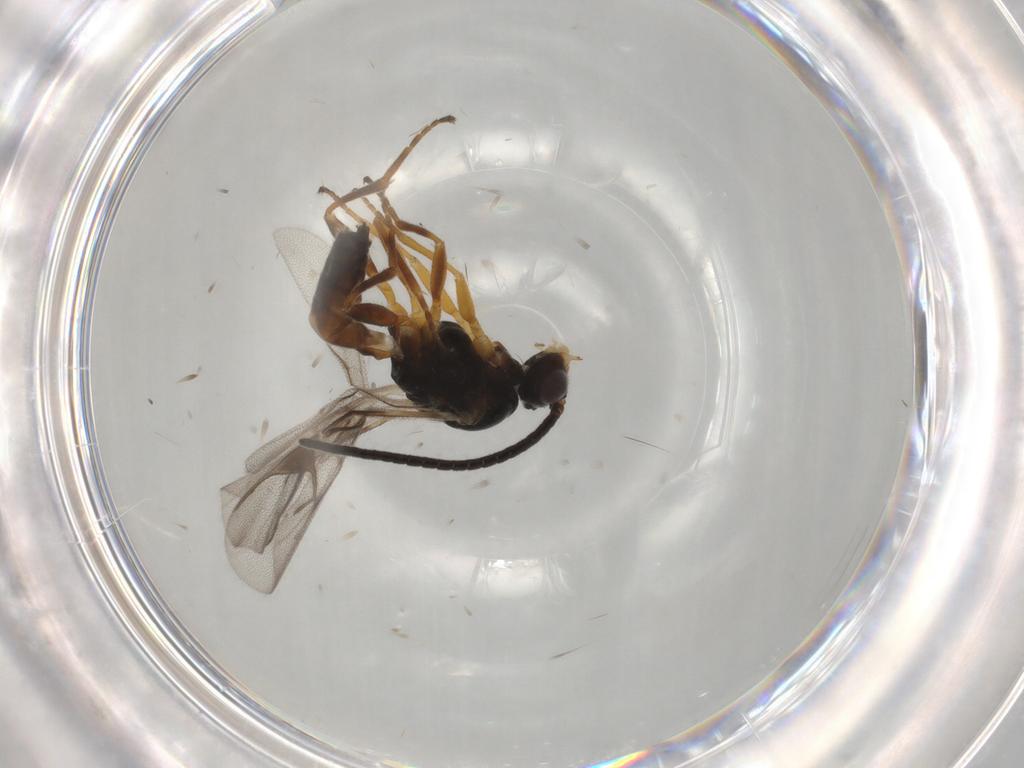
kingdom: Animalia
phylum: Arthropoda
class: Insecta
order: Hymenoptera
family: Braconidae
